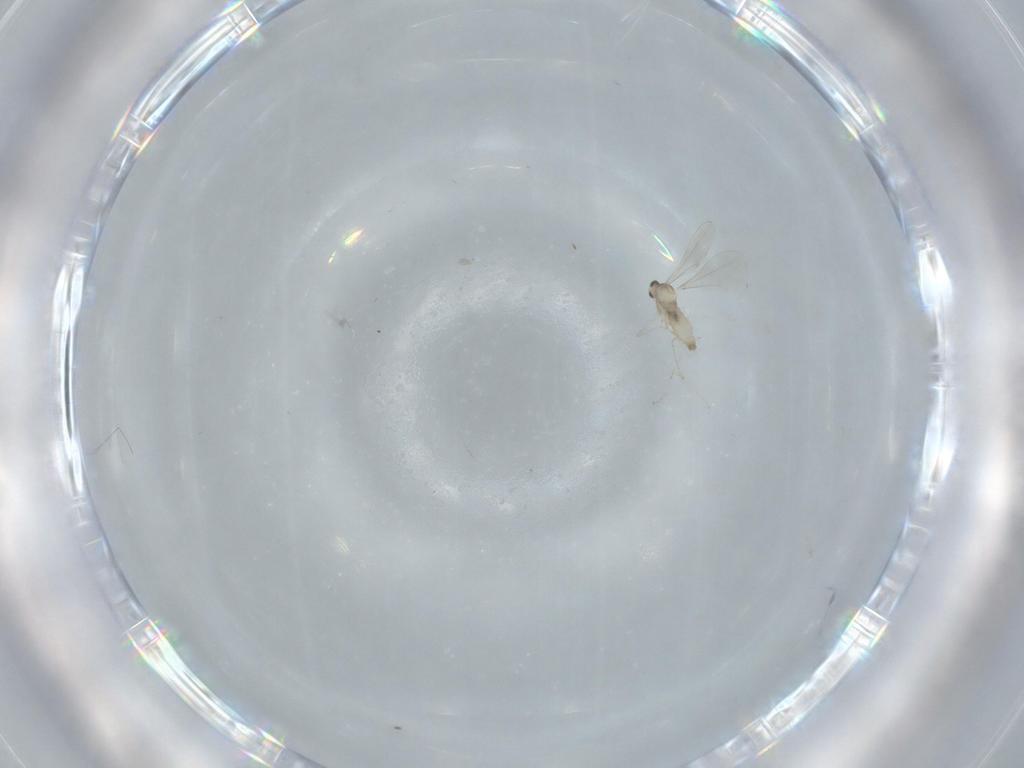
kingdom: Animalia
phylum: Arthropoda
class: Insecta
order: Diptera
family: Cecidomyiidae
